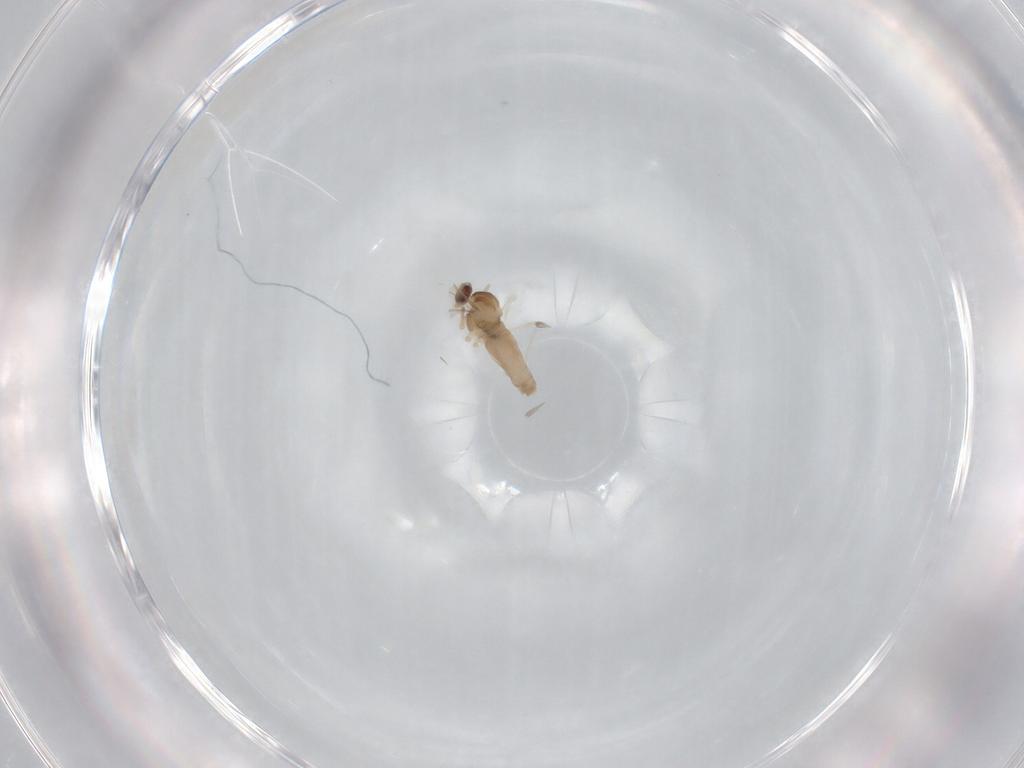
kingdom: Animalia
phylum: Arthropoda
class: Insecta
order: Diptera
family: Cecidomyiidae
